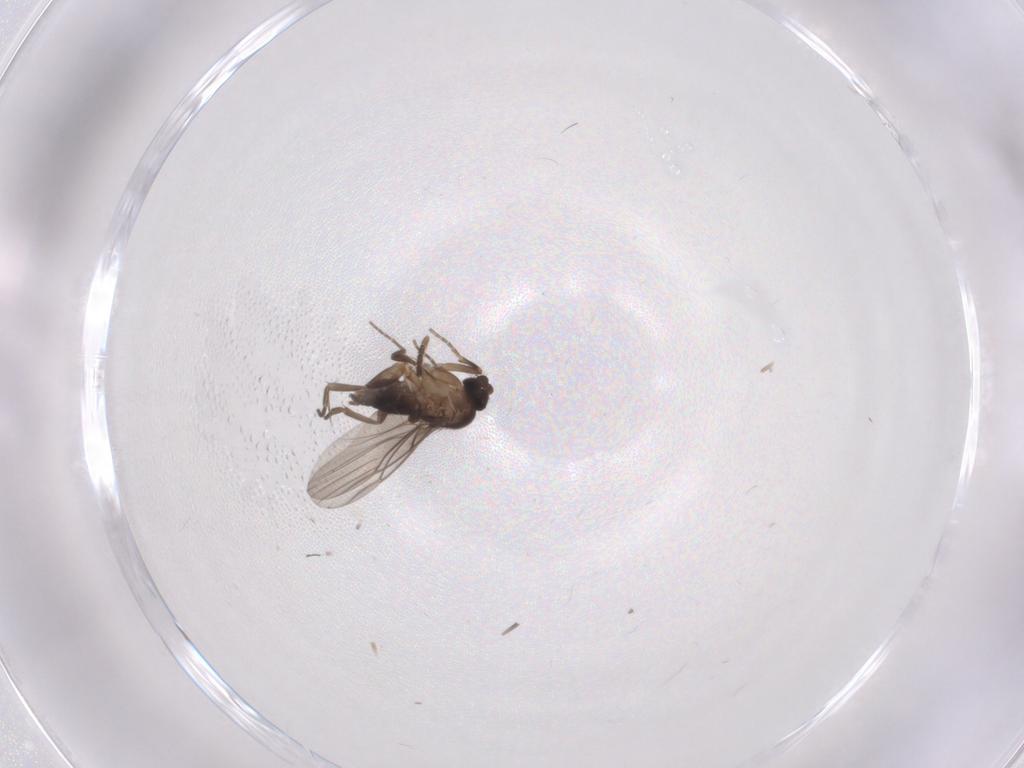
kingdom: Animalia
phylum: Arthropoda
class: Insecta
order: Diptera
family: Sciaridae
